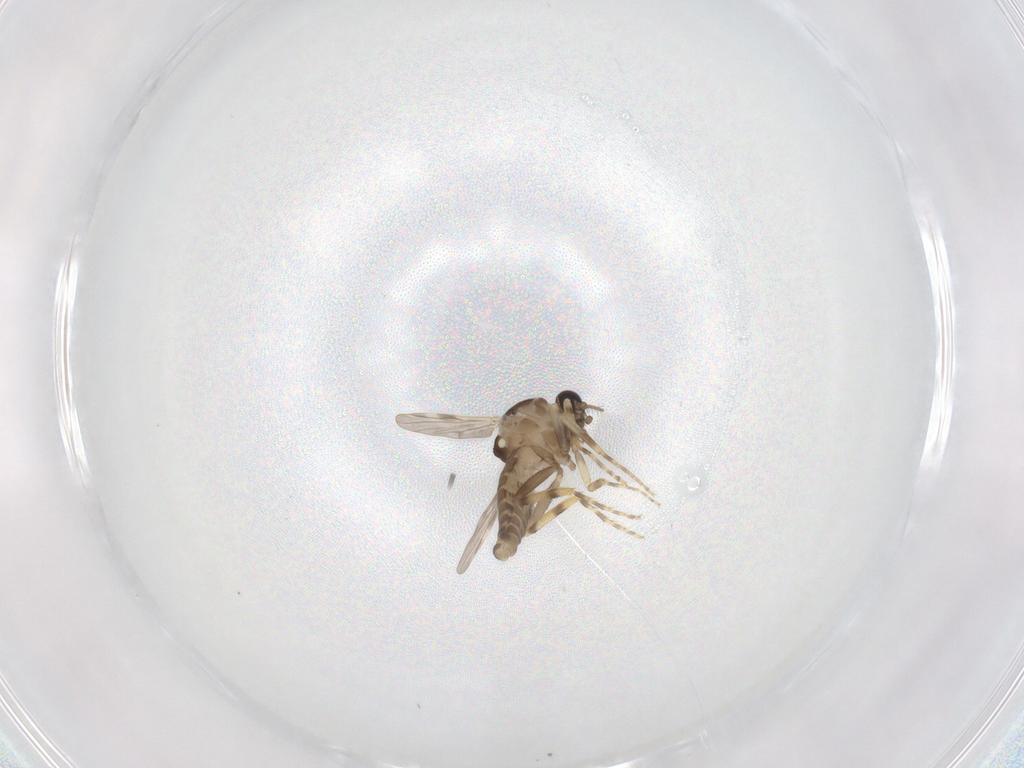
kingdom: Animalia
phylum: Arthropoda
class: Insecta
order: Diptera
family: Ceratopogonidae
